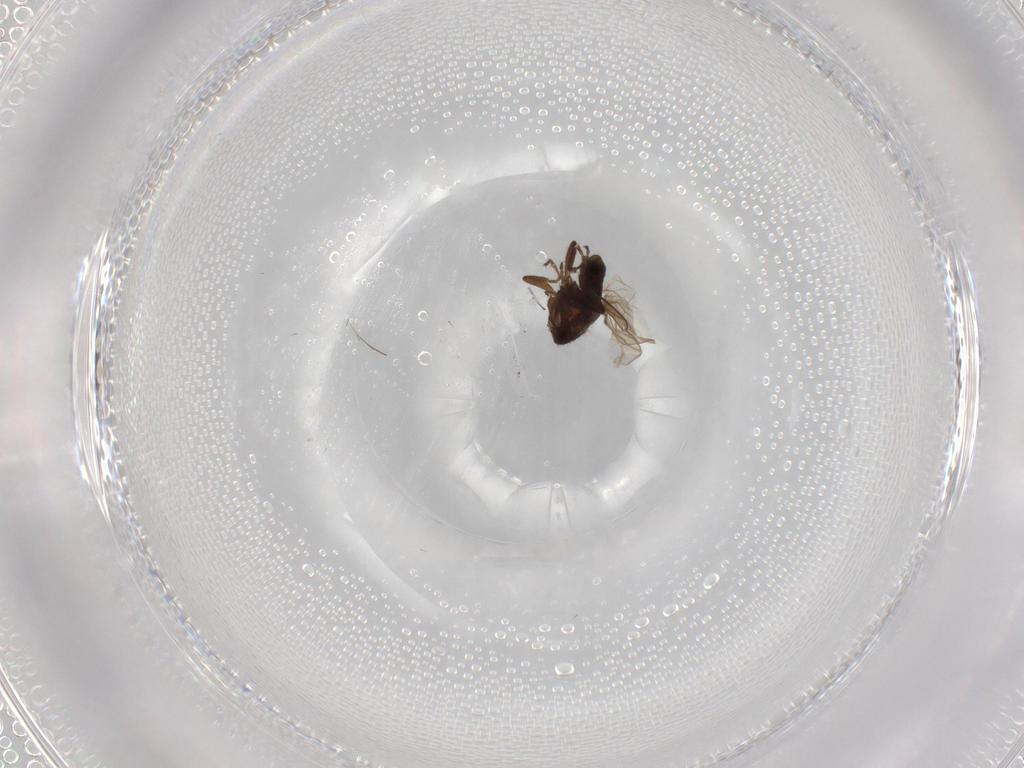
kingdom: Animalia
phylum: Arthropoda
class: Insecta
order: Diptera
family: Sphaeroceridae
